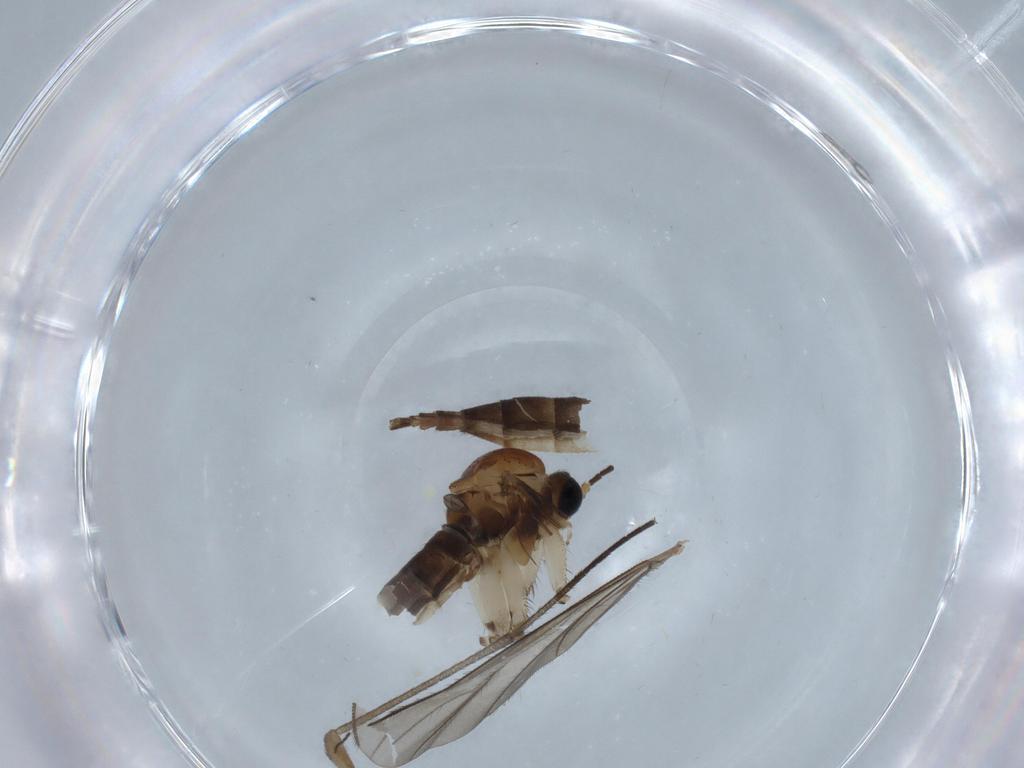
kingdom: Animalia
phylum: Arthropoda
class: Insecta
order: Diptera
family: Sciaridae
